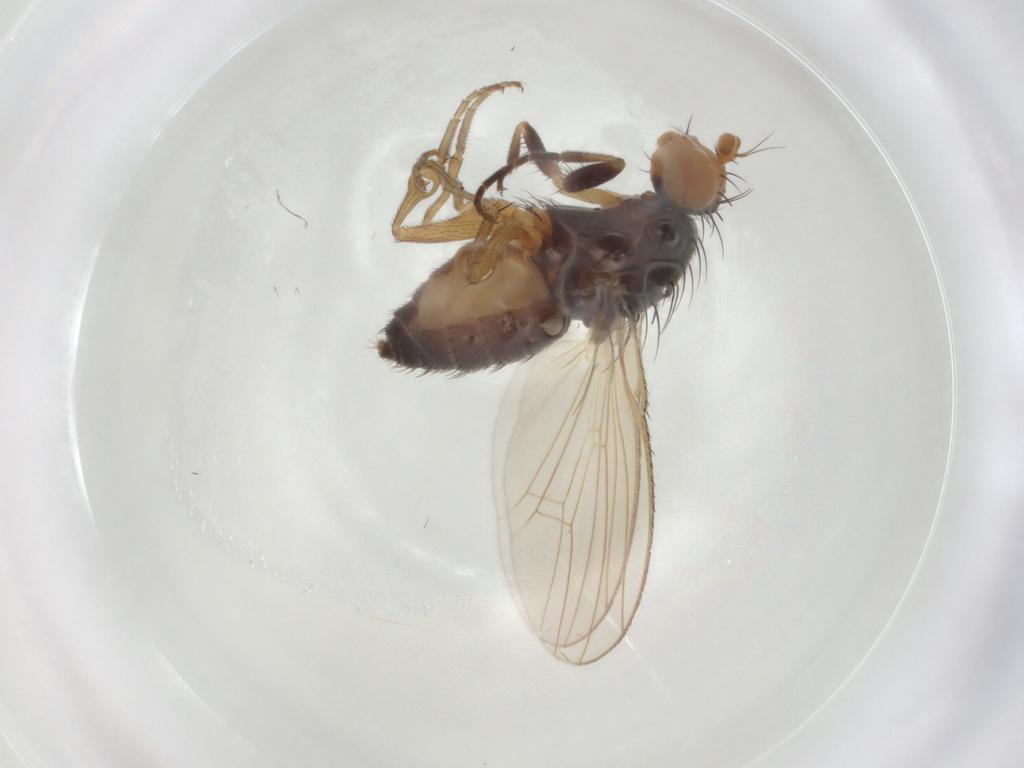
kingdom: Animalia
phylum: Arthropoda
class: Insecta
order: Diptera
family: Heleomyzidae
